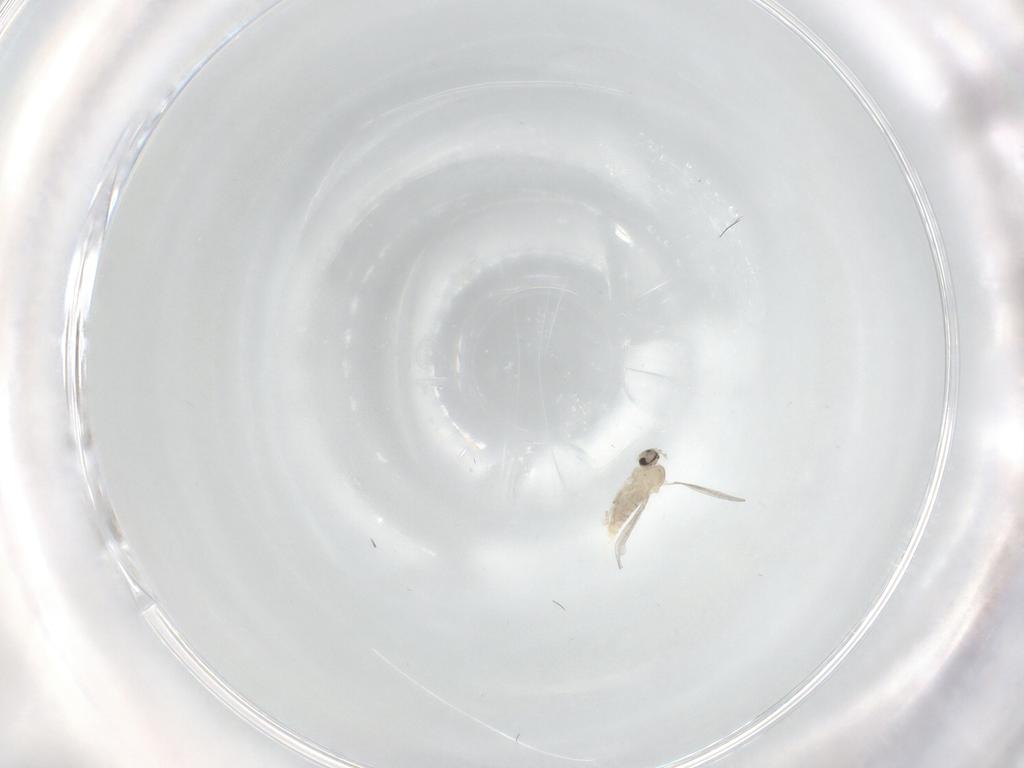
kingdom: Animalia
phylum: Arthropoda
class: Insecta
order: Diptera
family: Cecidomyiidae
